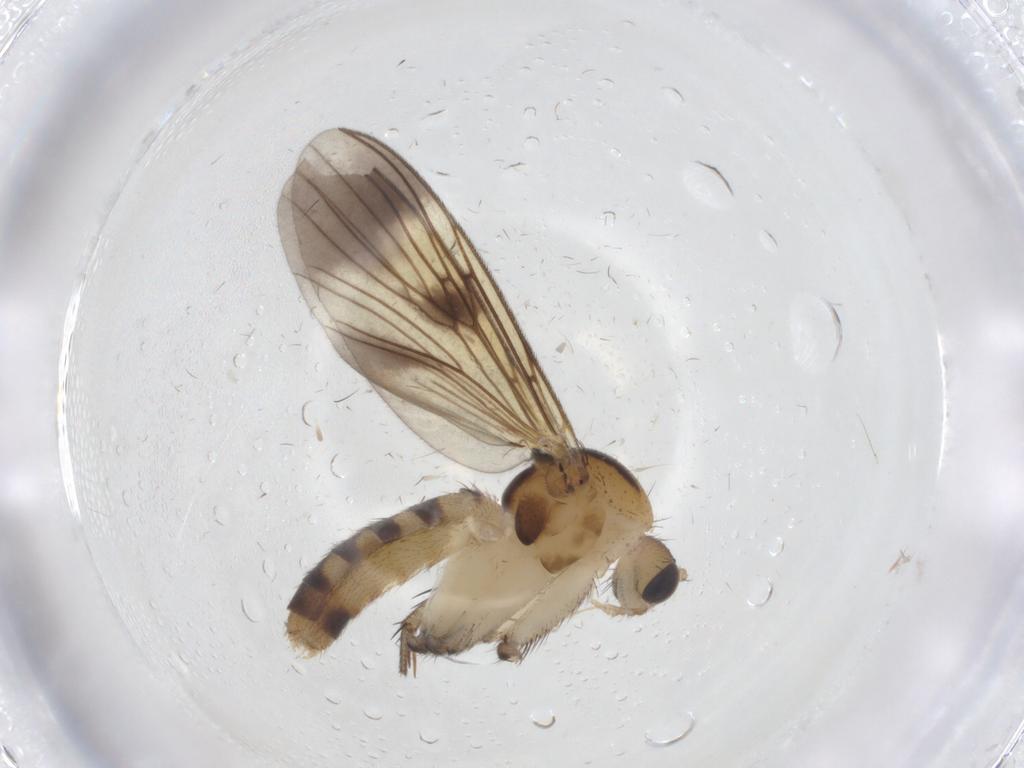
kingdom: Animalia
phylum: Arthropoda
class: Insecta
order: Diptera
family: Mycetophilidae
